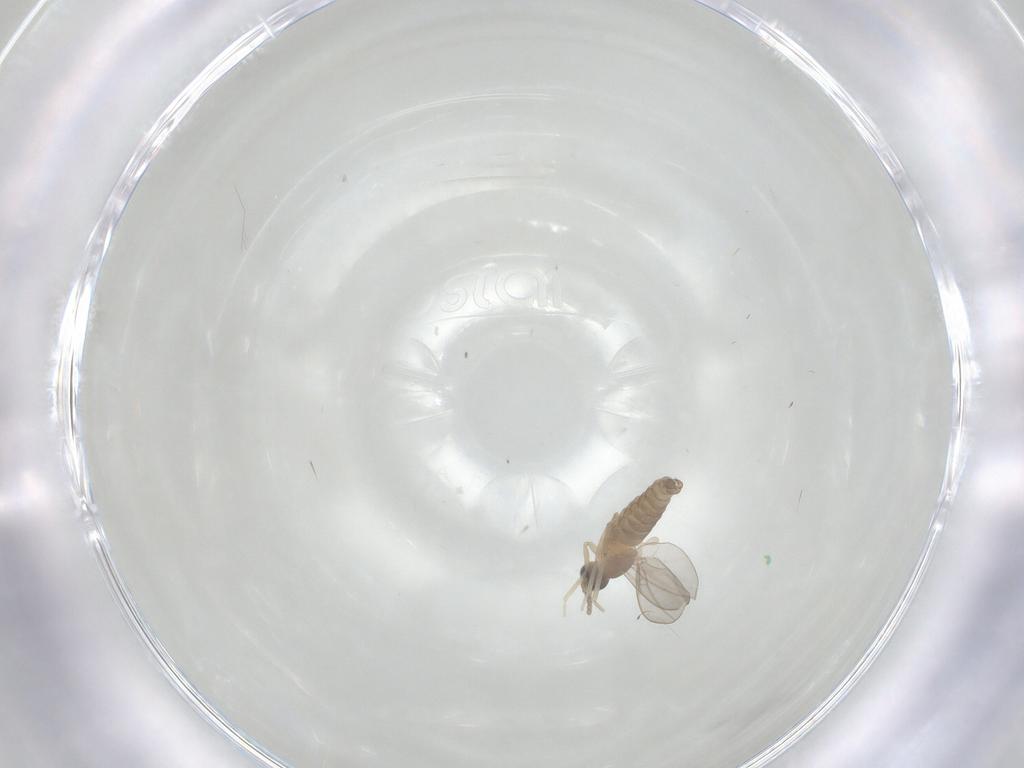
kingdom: Animalia
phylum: Arthropoda
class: Insecta
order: Diptera
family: Cecidomyiidae
